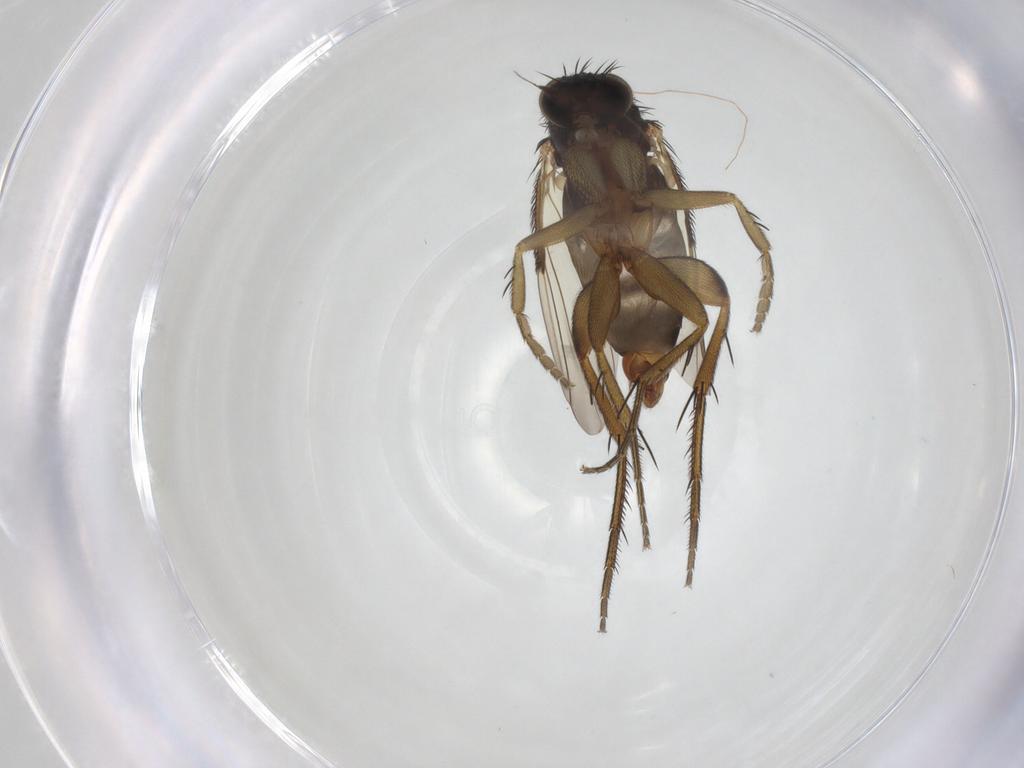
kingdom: Animalia
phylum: Arthropoda
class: Insecta
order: Diptera
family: Phoridae
